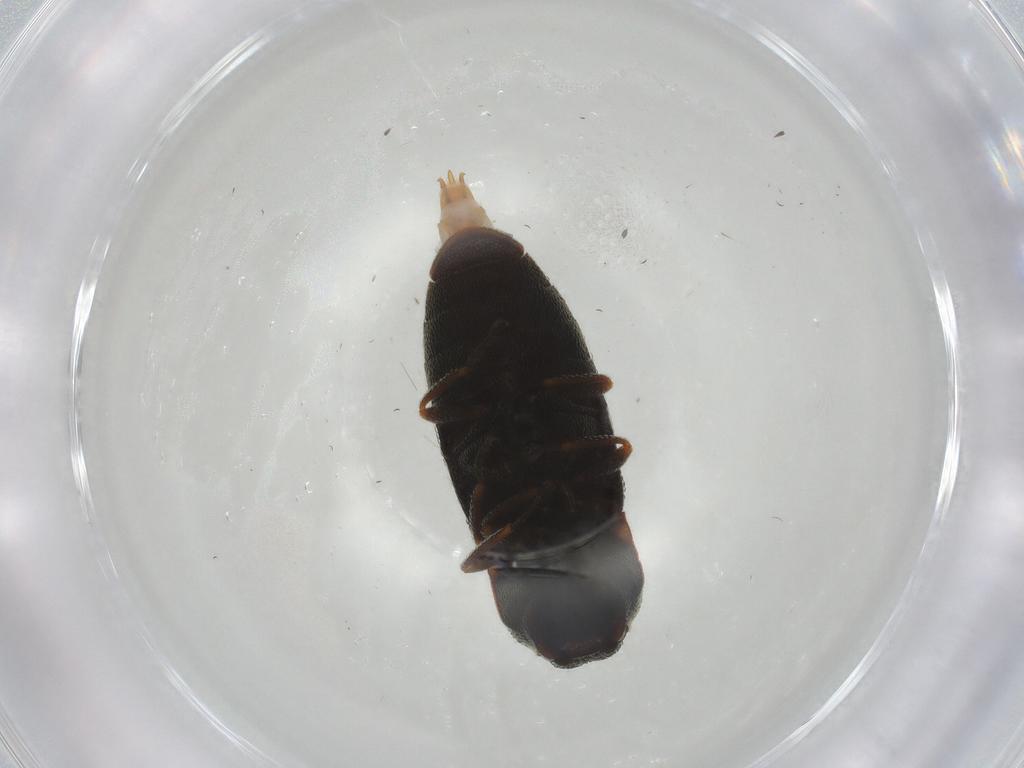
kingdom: Animalia
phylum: Arthropoda
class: Insecta
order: Coleoptera
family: Elateridae
